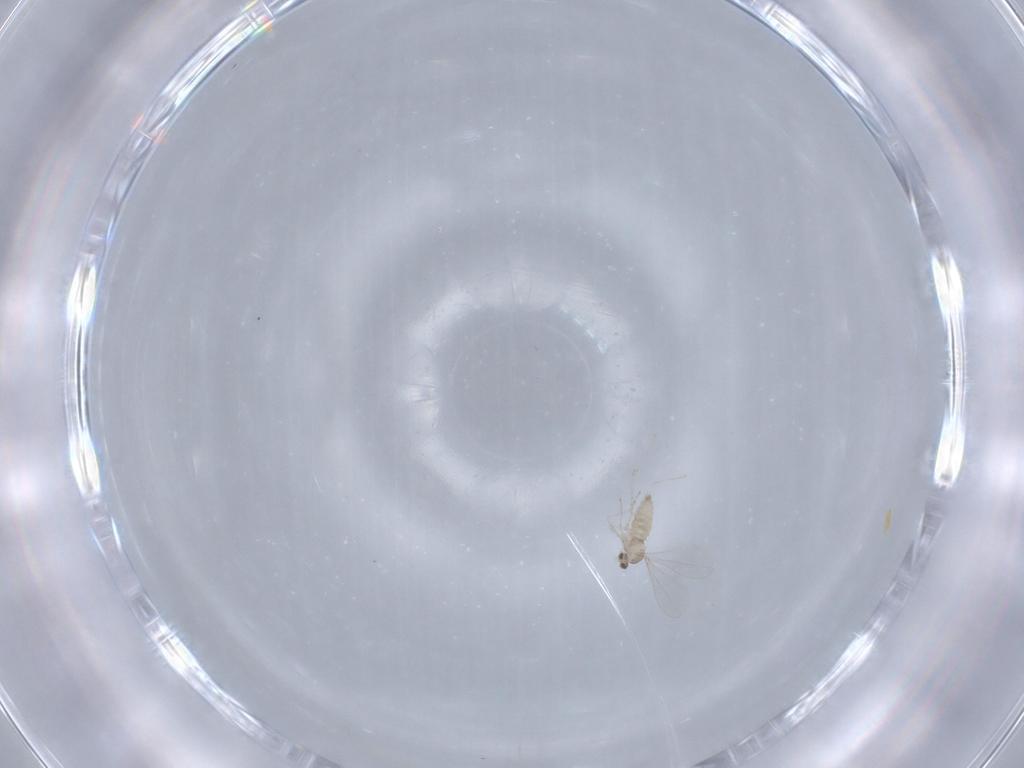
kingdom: Animalia
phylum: Arthropoda
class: Insecta
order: Diptera
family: Cecidomyiidae
